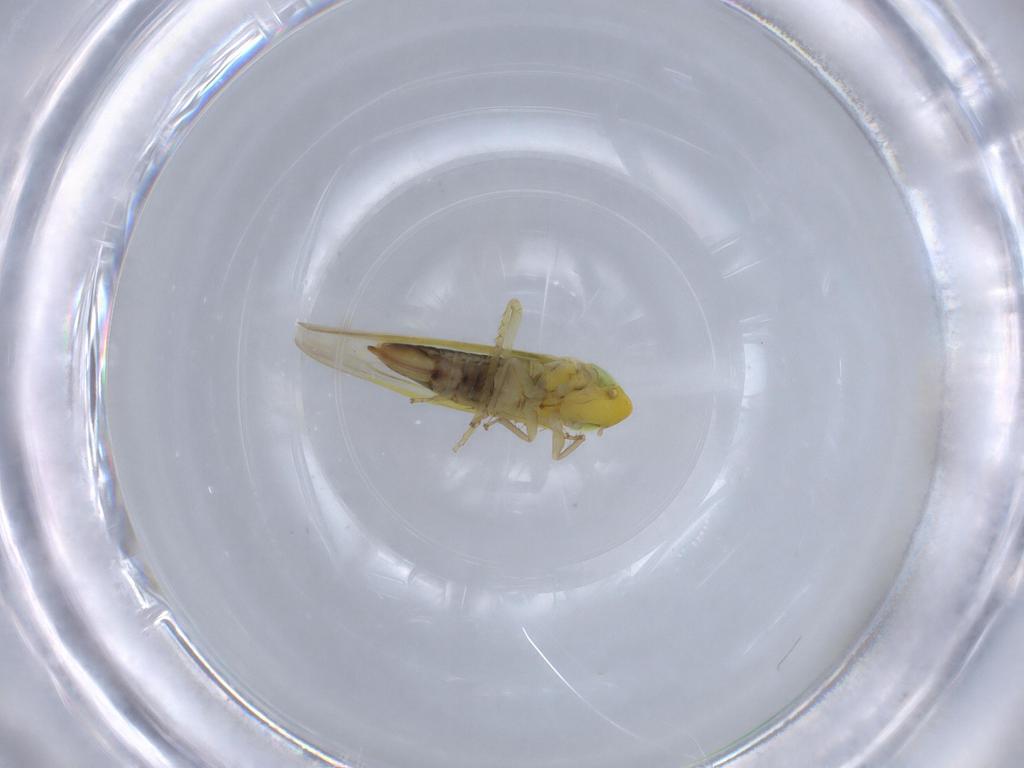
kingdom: Animalia
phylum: Arthropoda
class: Insecta
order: Hemiptera
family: Cicadellidae
